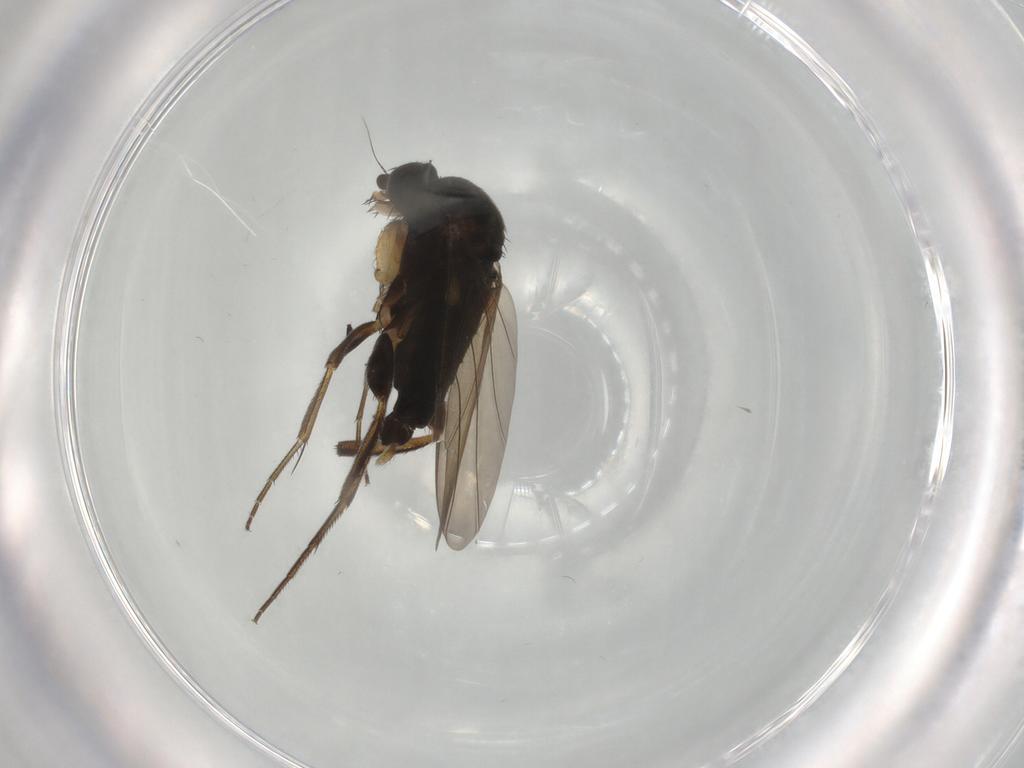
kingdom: Animalia
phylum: Arthropoda
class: Insecta
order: Diptera
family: Phoridae
